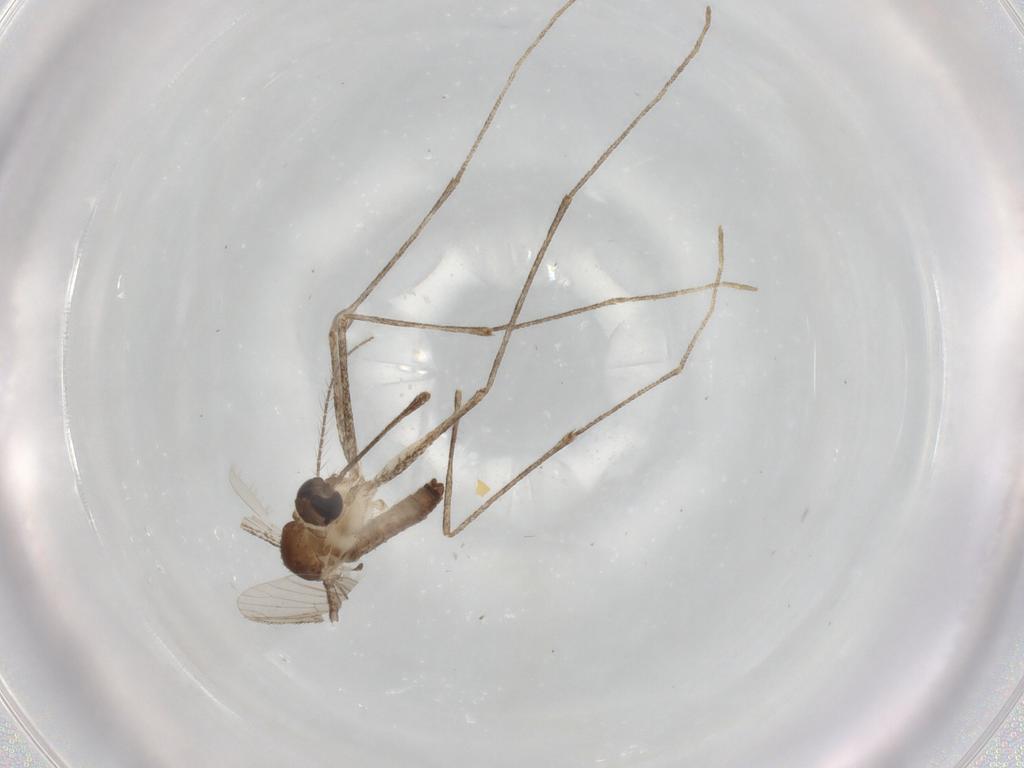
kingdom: Animalia
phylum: Arthropoda
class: Insecta
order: Diptera
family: Culicidae
